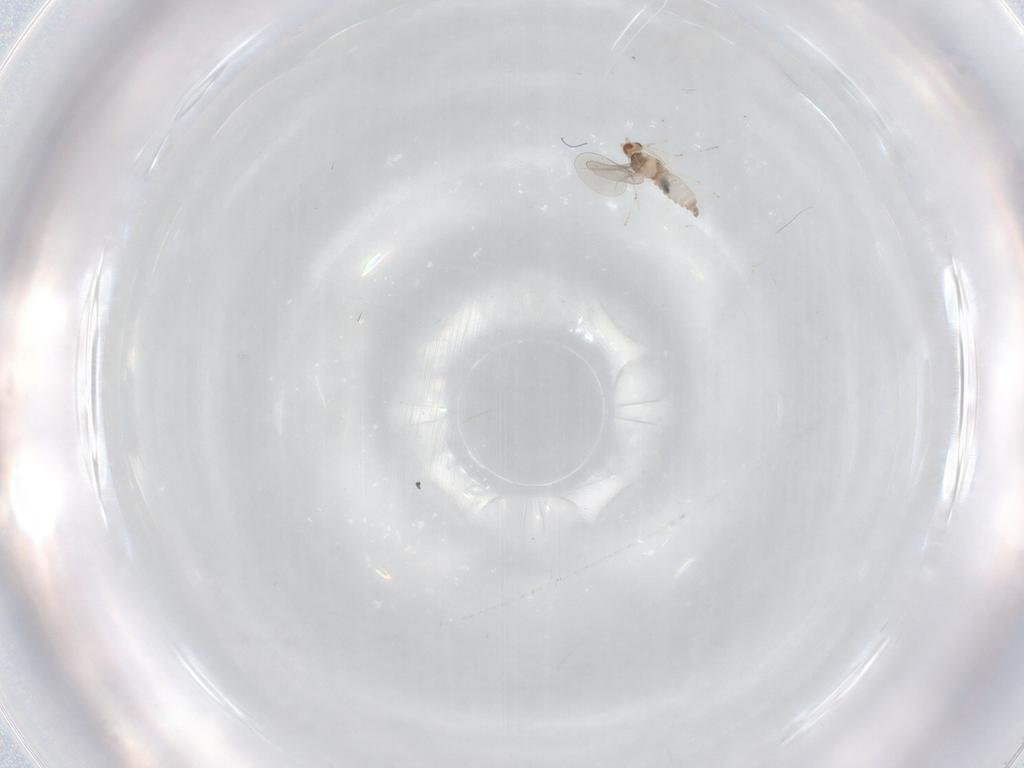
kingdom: Animalia
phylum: Arthropoda
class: Insecta
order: Diptera
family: Cecidomyiidae
